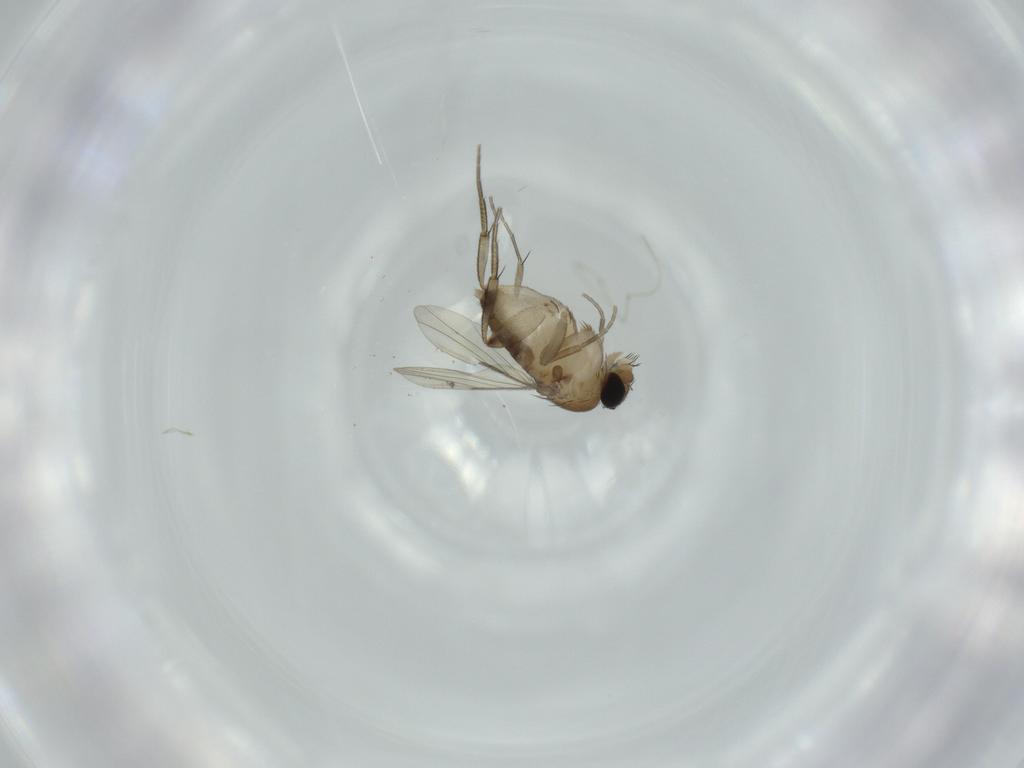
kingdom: Animalia
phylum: Arthropoda
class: Insecta
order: Diptera
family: Phoridae
